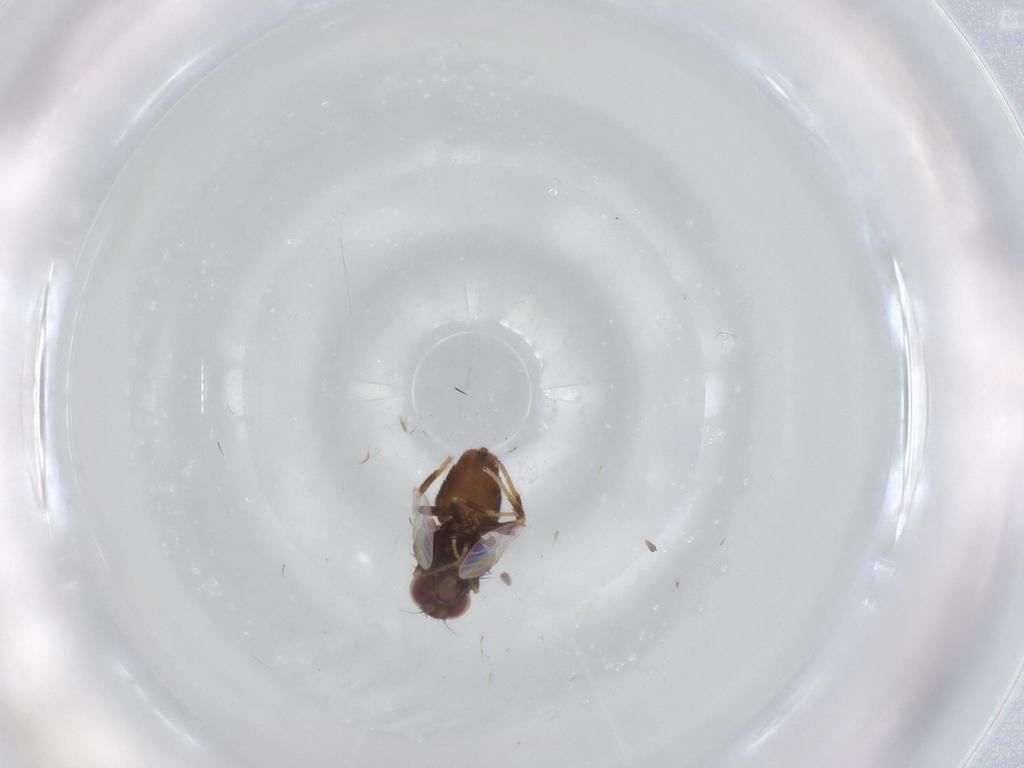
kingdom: Animalia
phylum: Arthropoda
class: Insecta
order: Diptera
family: Chloropidae
